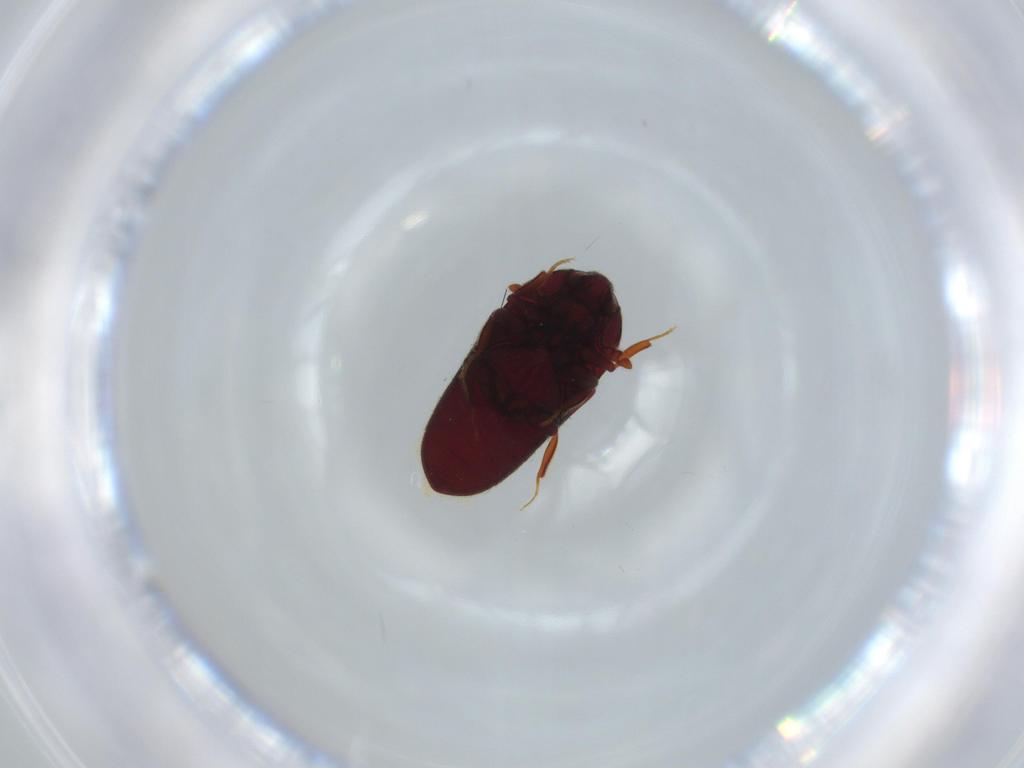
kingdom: Animalia
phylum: Arthropoda
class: Insecta
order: Coleoptera
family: Throscidae
